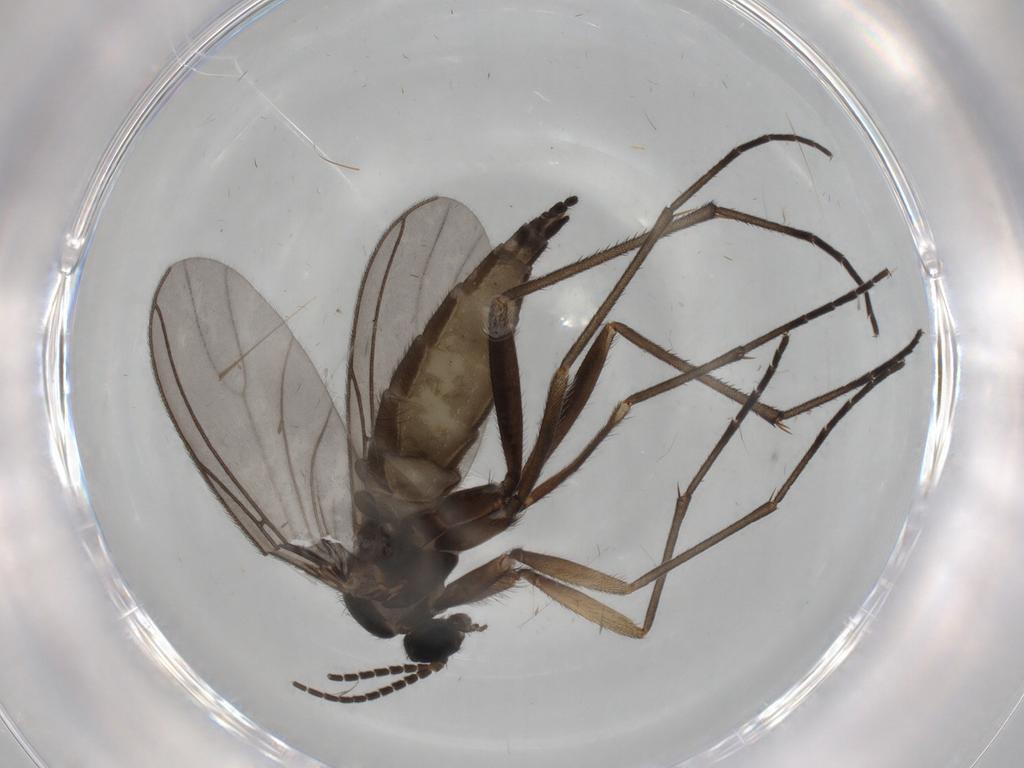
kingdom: Animalia
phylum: Arthropoda
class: Insecta
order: Diptera
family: Sciaridae
